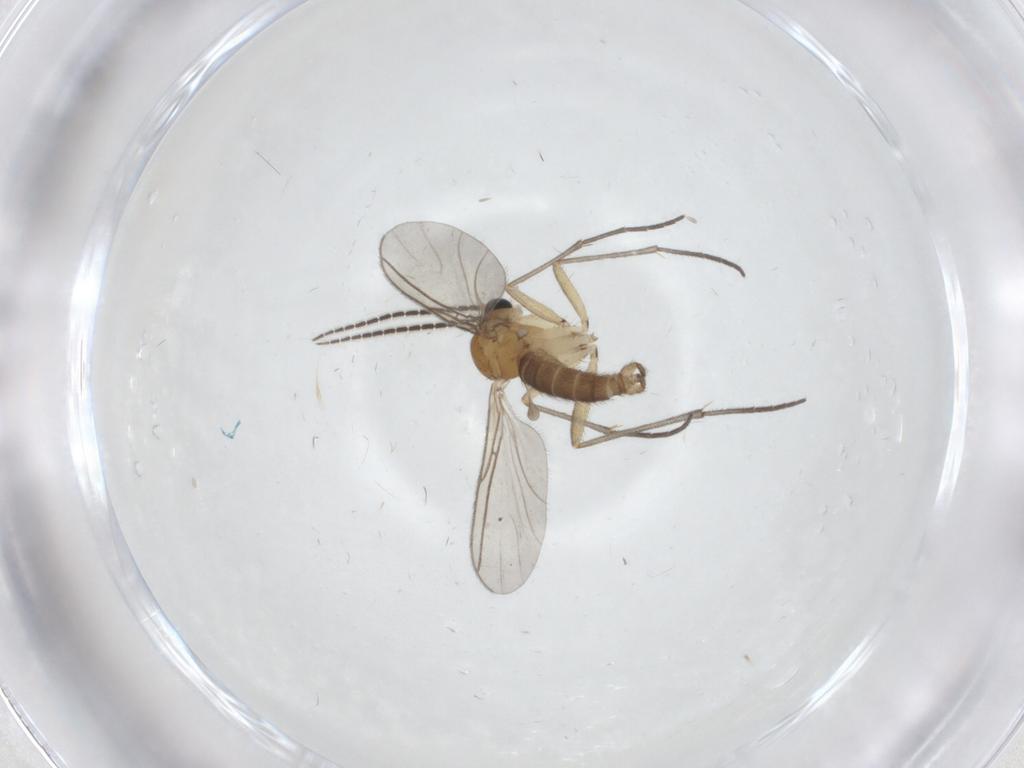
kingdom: Animalia
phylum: Arthropoda
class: Insecta
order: Diptera
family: Sciaridae
